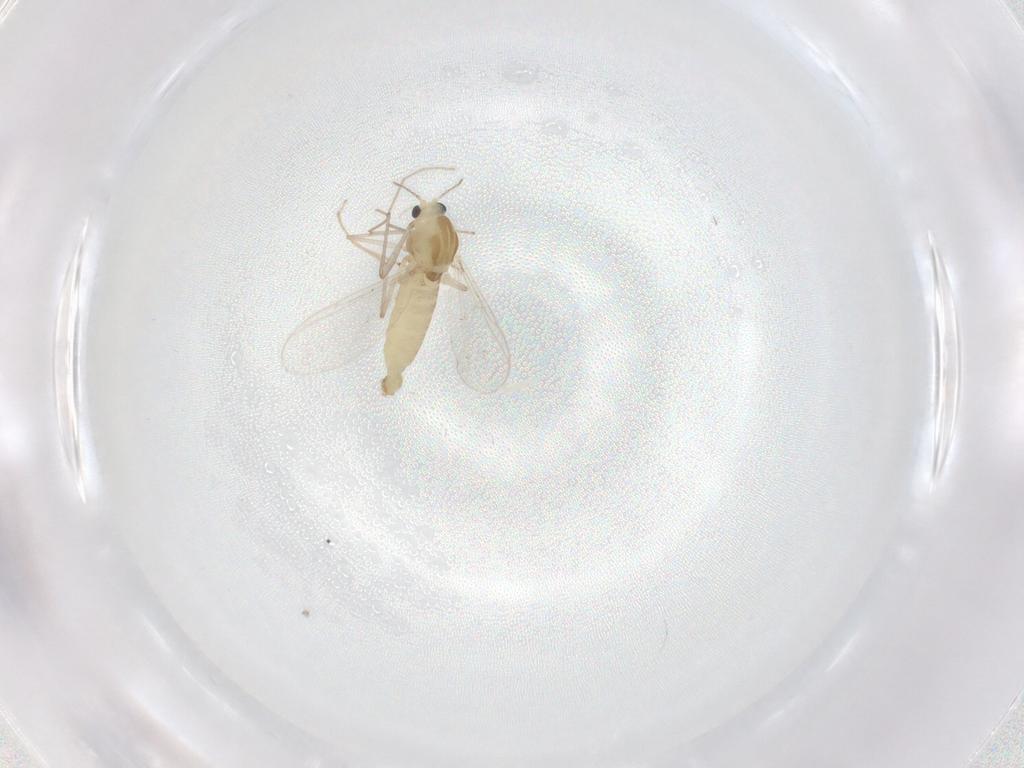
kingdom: Animalia
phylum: Arthropoda
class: Insecta
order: Diptera
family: Chironomidae
